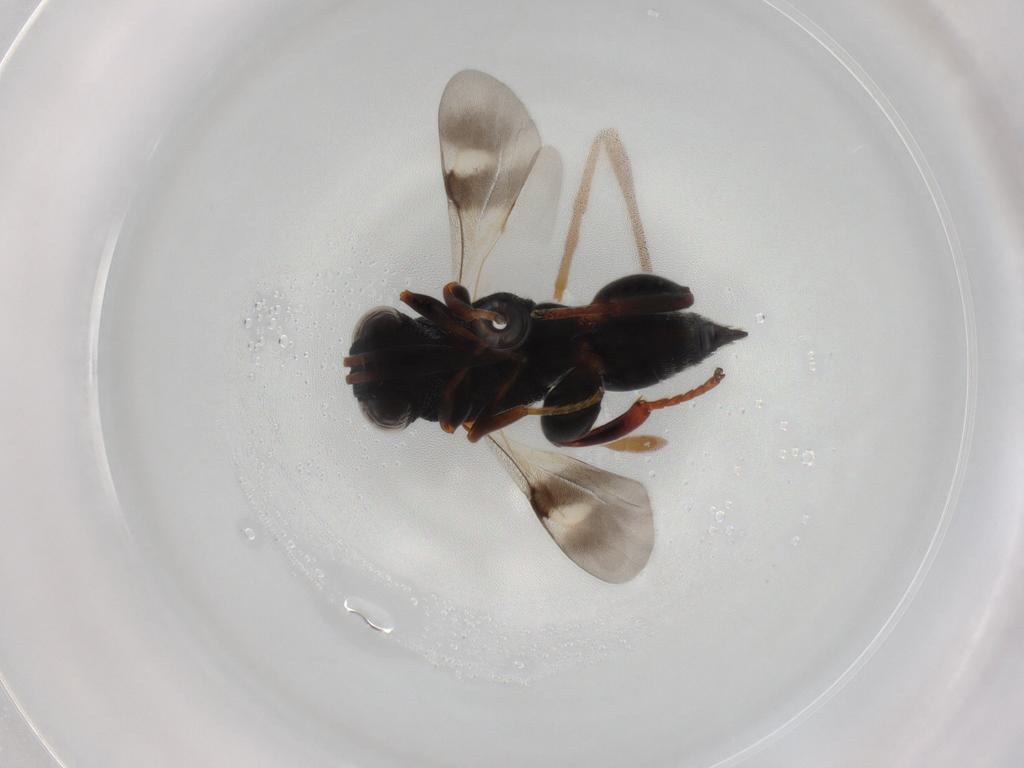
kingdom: Animalia
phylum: Arthropoda
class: Insecta
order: Hymenoptera
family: Chalcididae
